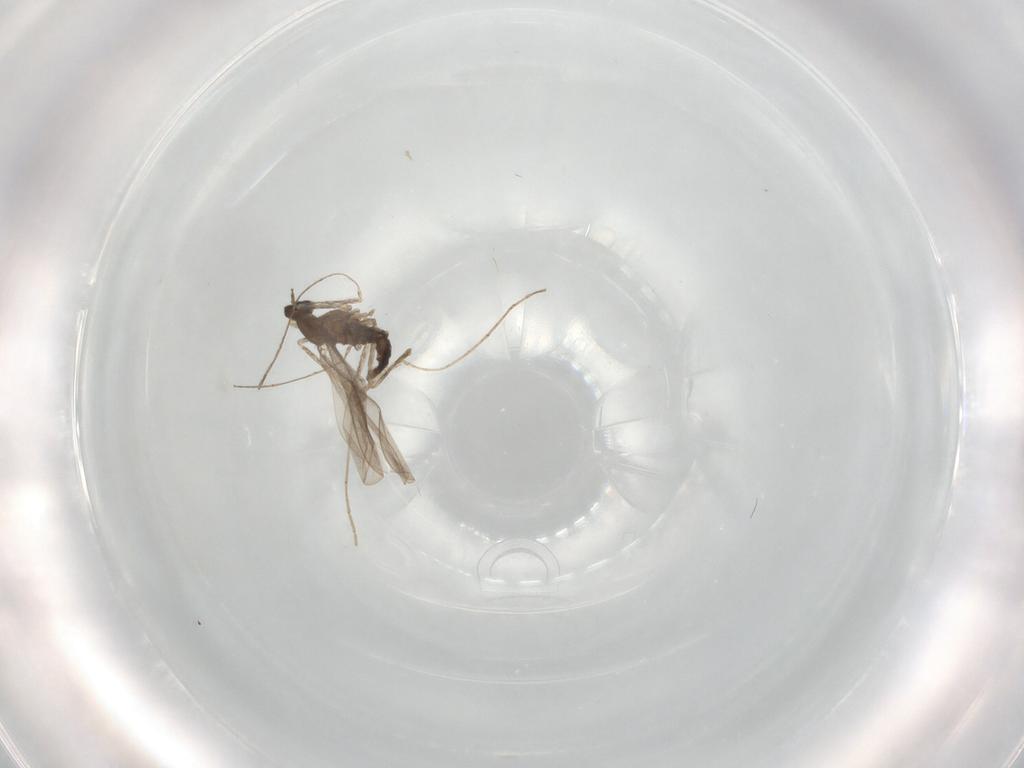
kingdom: Animalia
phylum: Arthropoda
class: Insecta
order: Diptera
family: Cecidomyiidae
